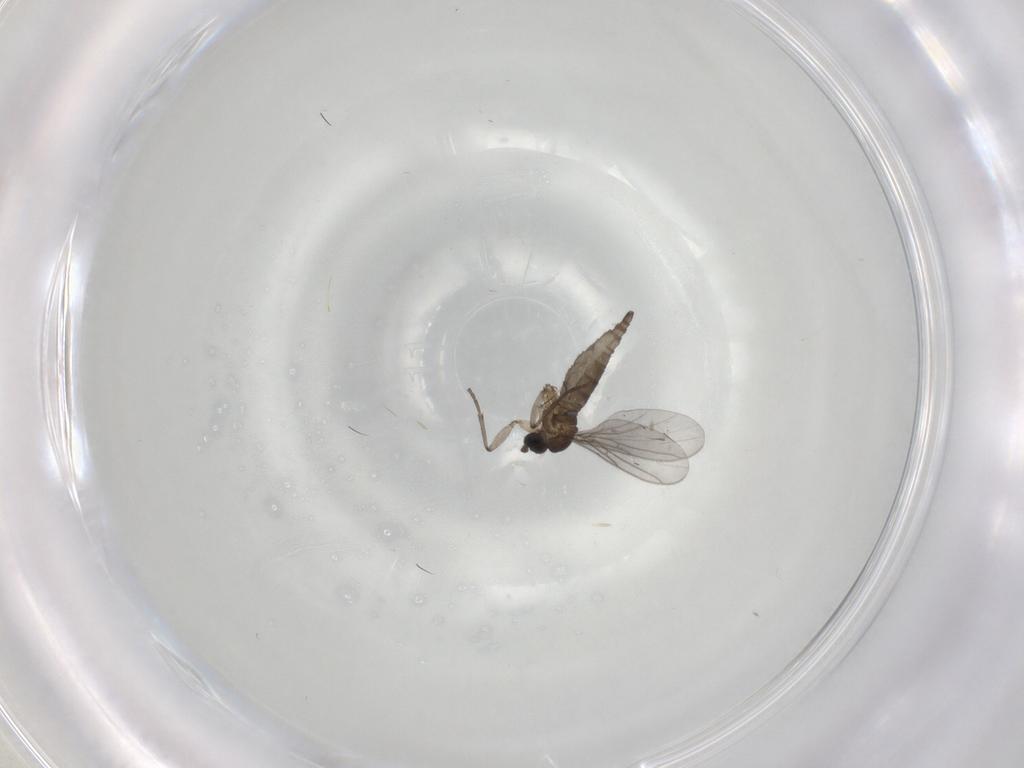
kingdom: Animalia
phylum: Arthropoda
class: Insecta
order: Diptera
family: Sciaridae
